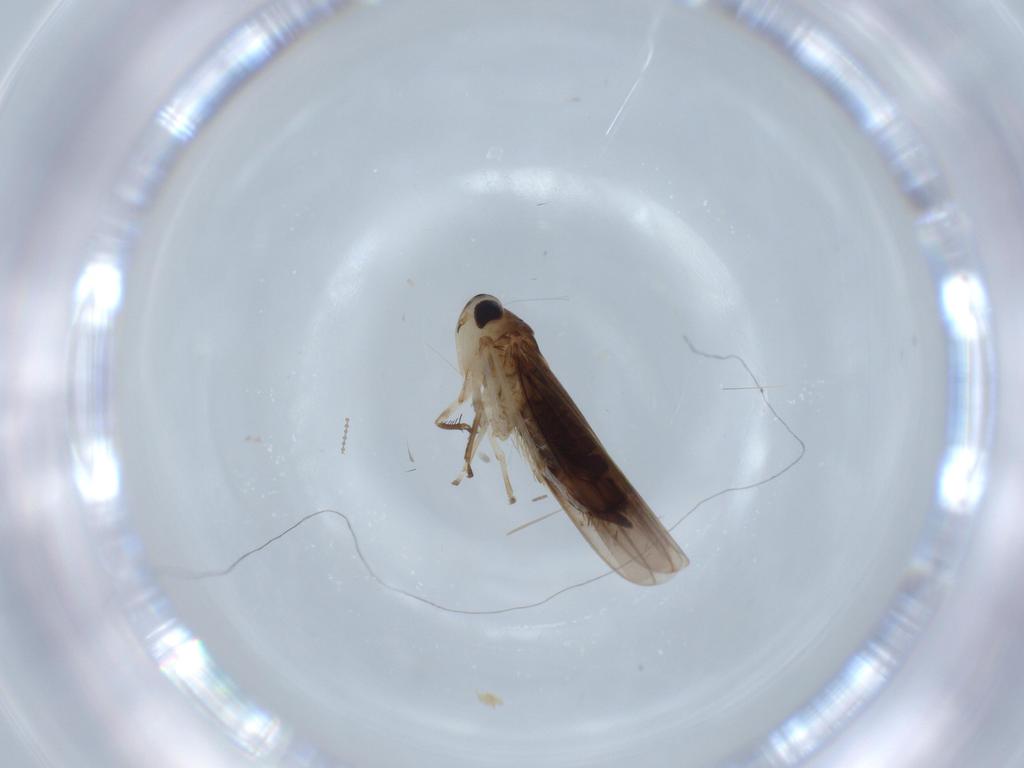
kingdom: Animalia
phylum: Arthropoda
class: Insecta
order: Hemiptera
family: Cicadellidae
